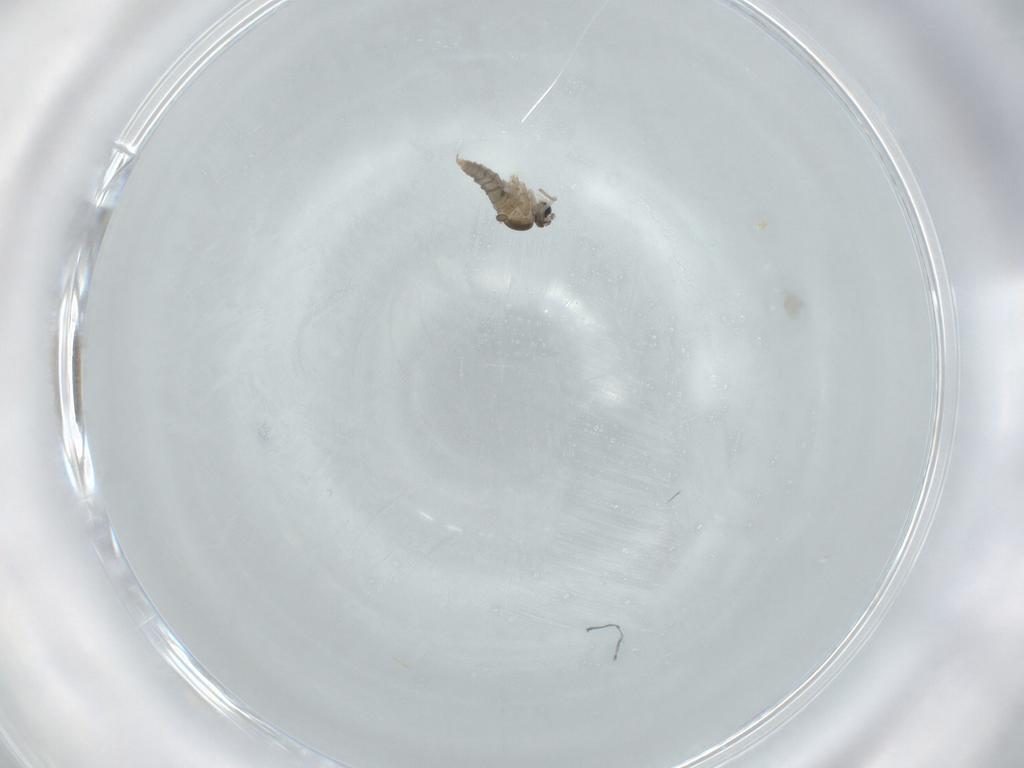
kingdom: Animalia
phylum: Arthropoda
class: Insecta
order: Diptera
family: Cecidomyiidae
